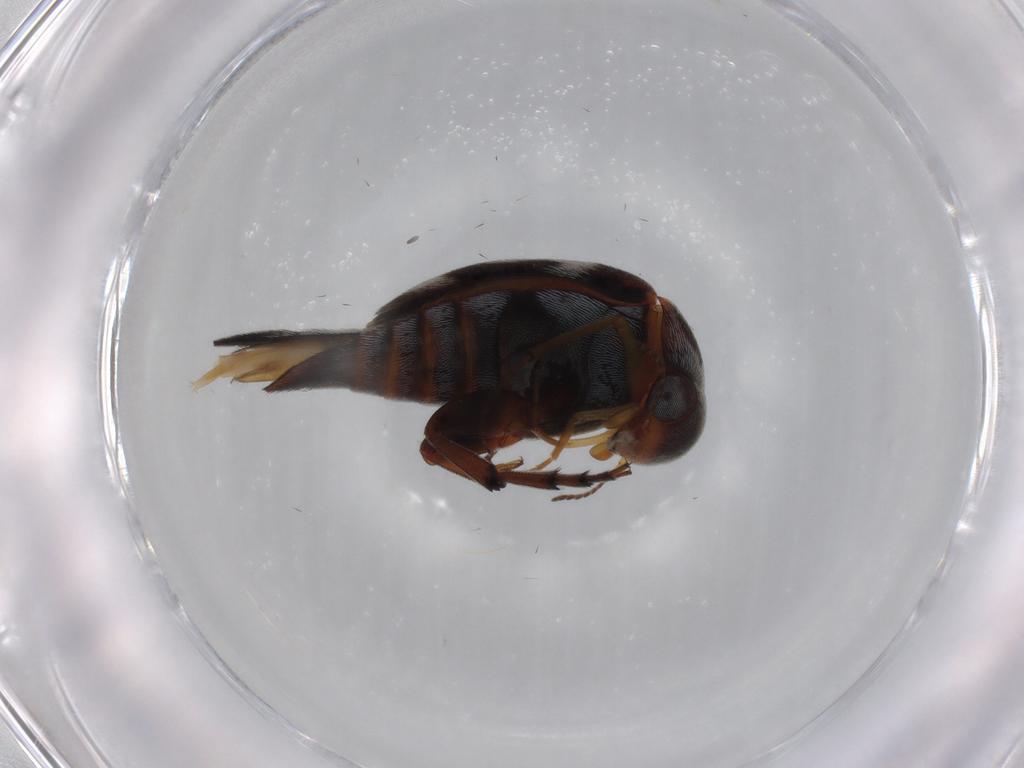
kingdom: Animalia
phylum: Arthropoda
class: Insecta
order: Coleoptera
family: Mordellidae
